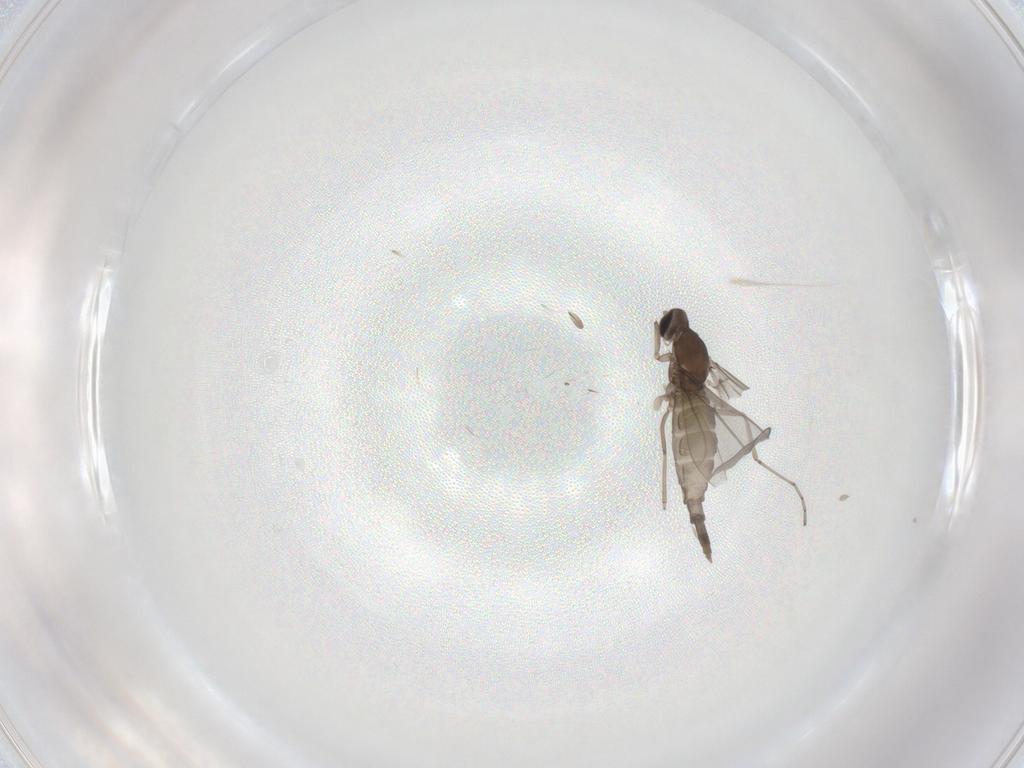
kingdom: Animalia
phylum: Arthropoda
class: Insecta
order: Diptera
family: Cecidomyiidae
